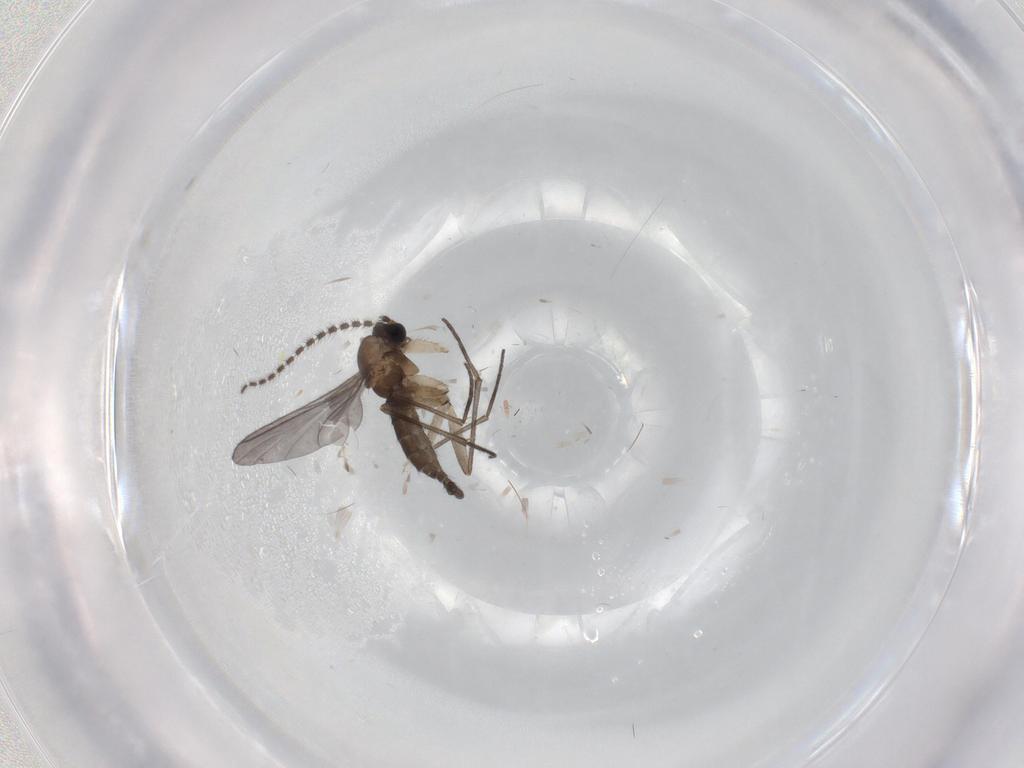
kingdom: Animalia
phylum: Arthropoda
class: Insecta
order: Diptera
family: Sciaridae
